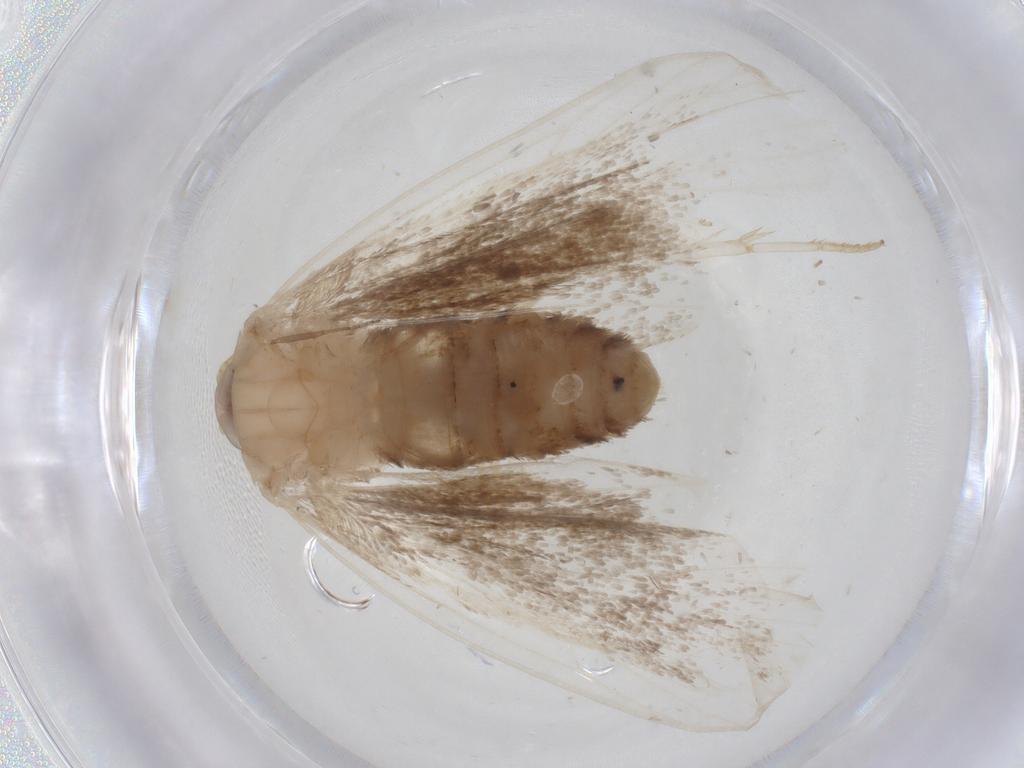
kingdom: Animalia
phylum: Arthropoda
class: Insecta
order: Lepidoptera
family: Erebidae
